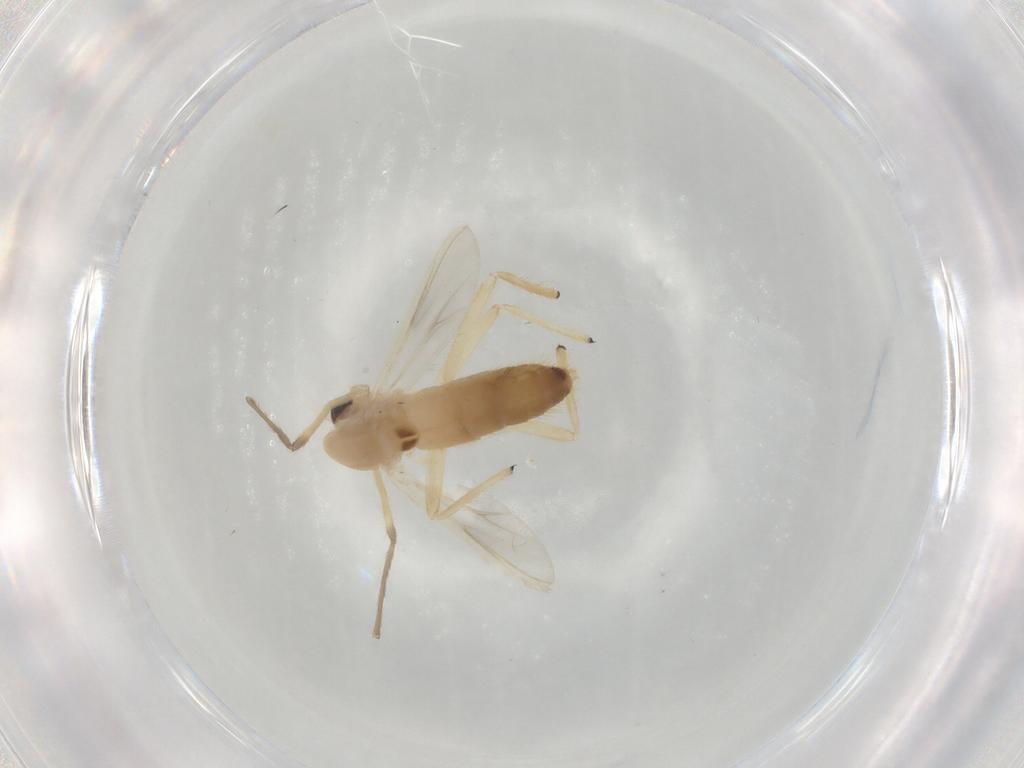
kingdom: Animalia
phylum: Arthropoda
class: Insecta
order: Diptera
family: Chironomidae
